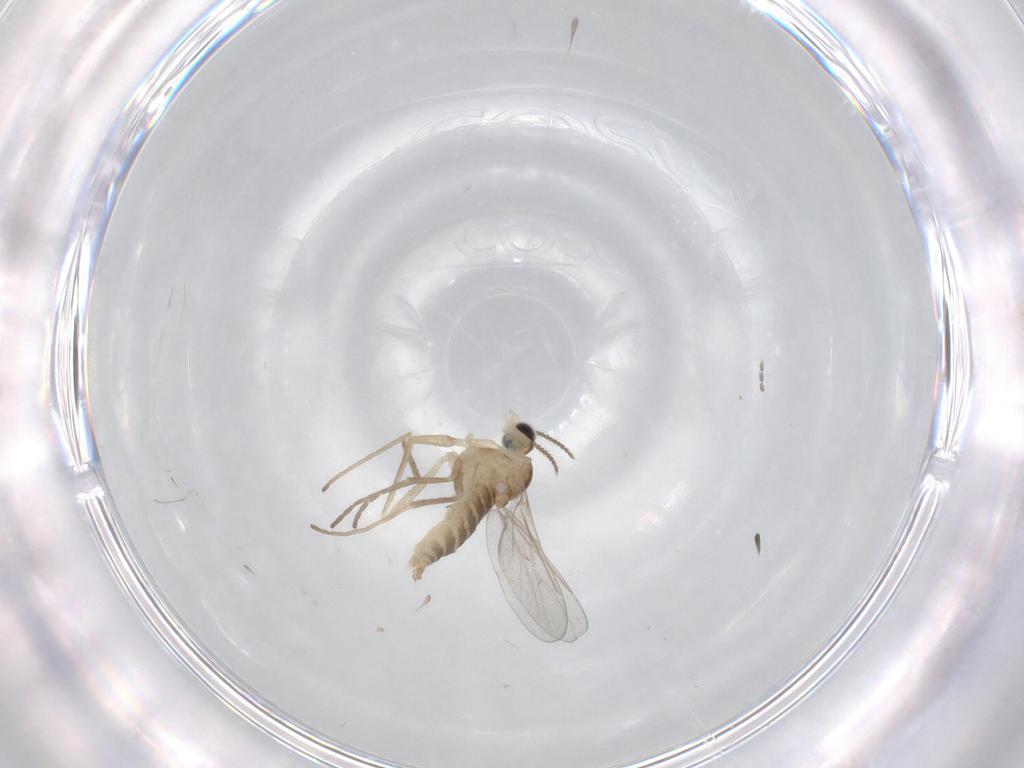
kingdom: Animalia
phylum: Arthropoda
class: Insecta
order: Diptera
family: Cecidomyiidae
